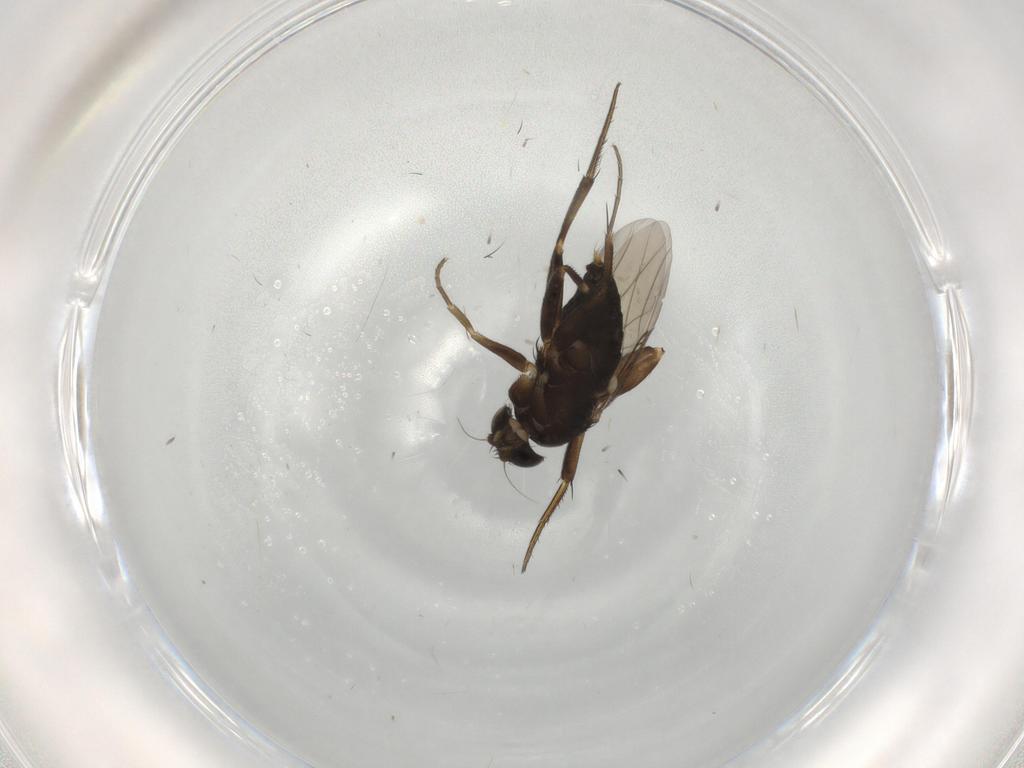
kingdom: Animalia
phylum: Arthropoda
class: Insecta
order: Diptera
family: Phoridae
